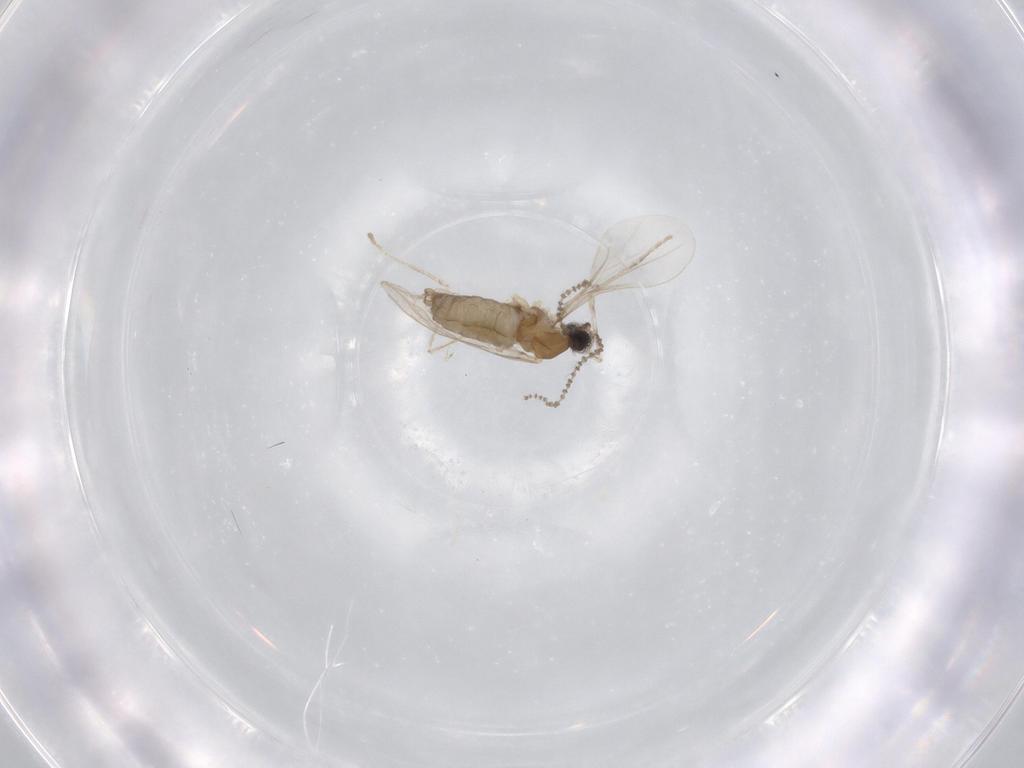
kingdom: Animalia
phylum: Arthropoda
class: Insecta
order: Diptera
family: Cecidomyiidae
